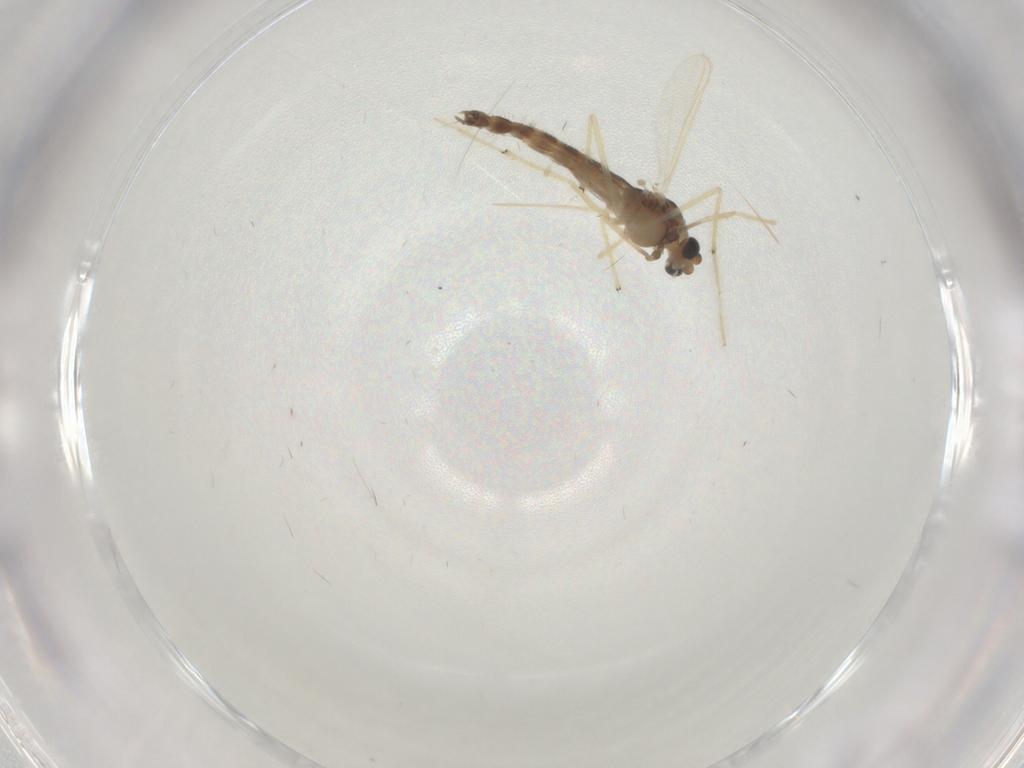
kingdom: Animalia
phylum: Arthropoda
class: Insecta
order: Diptera
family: Chironomidae
